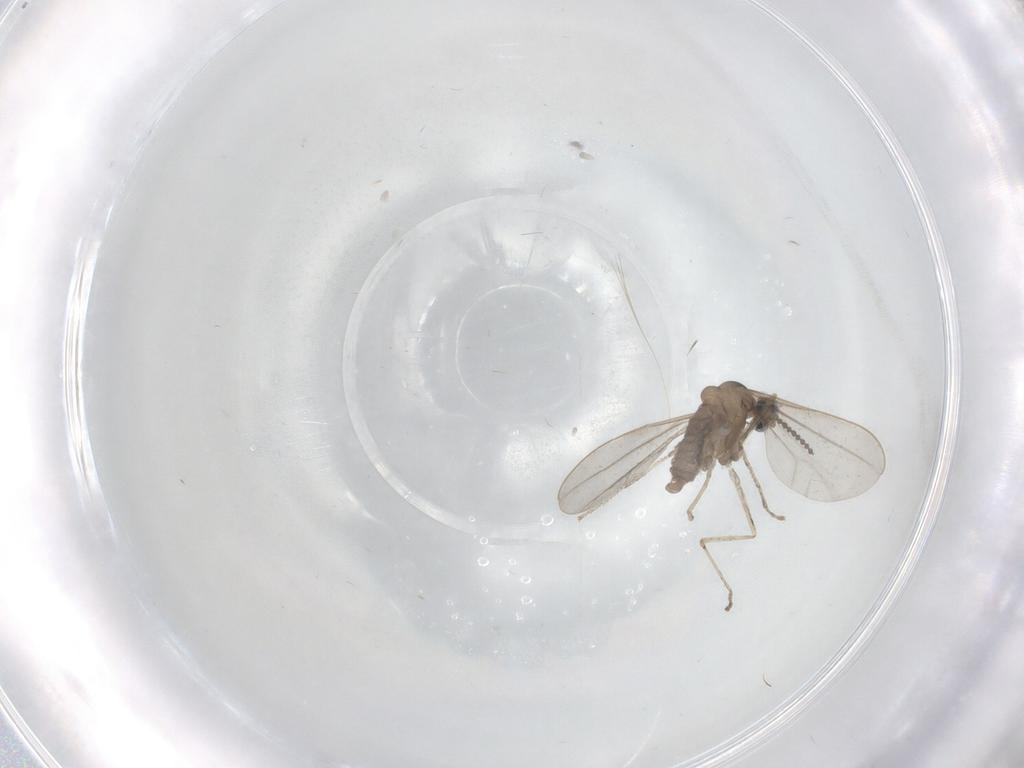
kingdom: Animalia
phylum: Arthropoda
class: Insecta
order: Diptera
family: Cecidomyiidae
